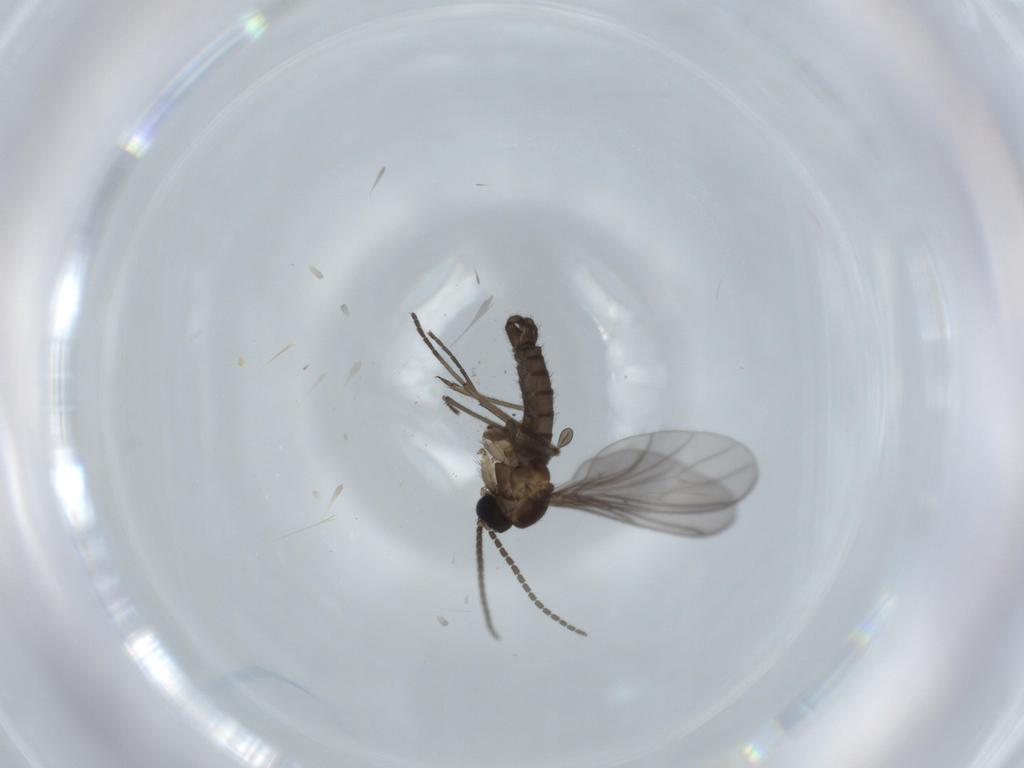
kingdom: Animalia
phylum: Arthropoda
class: Insecta
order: Diptera
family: Sciaridae
